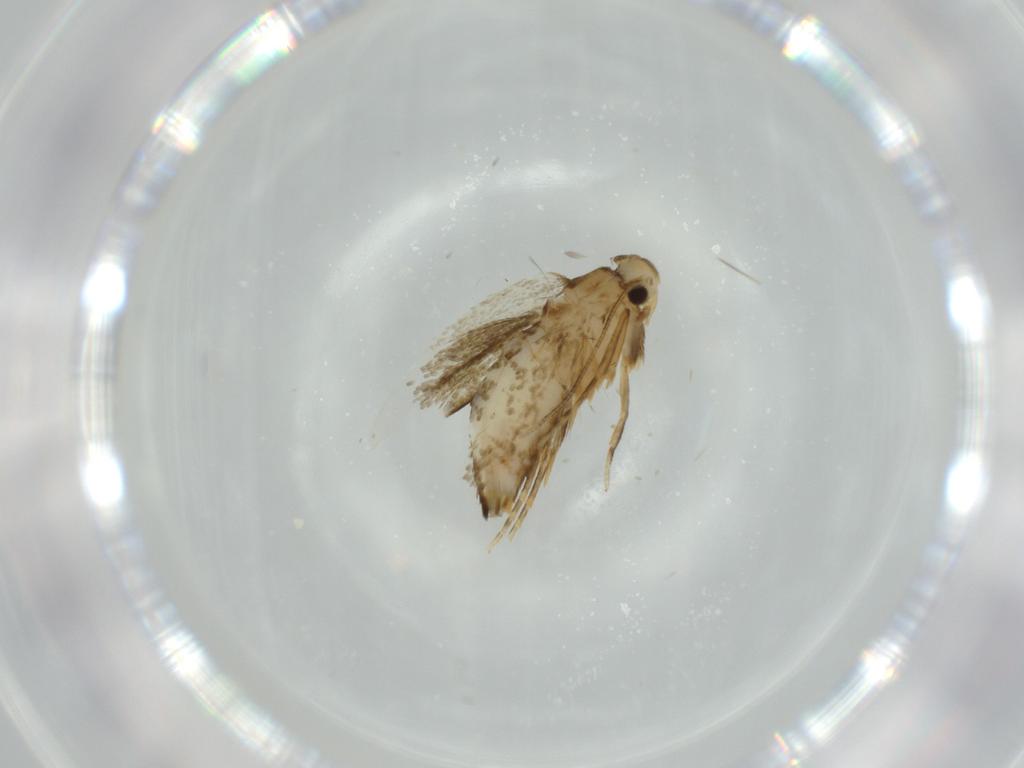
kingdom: Animalia
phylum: Arthropoda
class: Insecta
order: Lepidoptera
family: Tineidae
